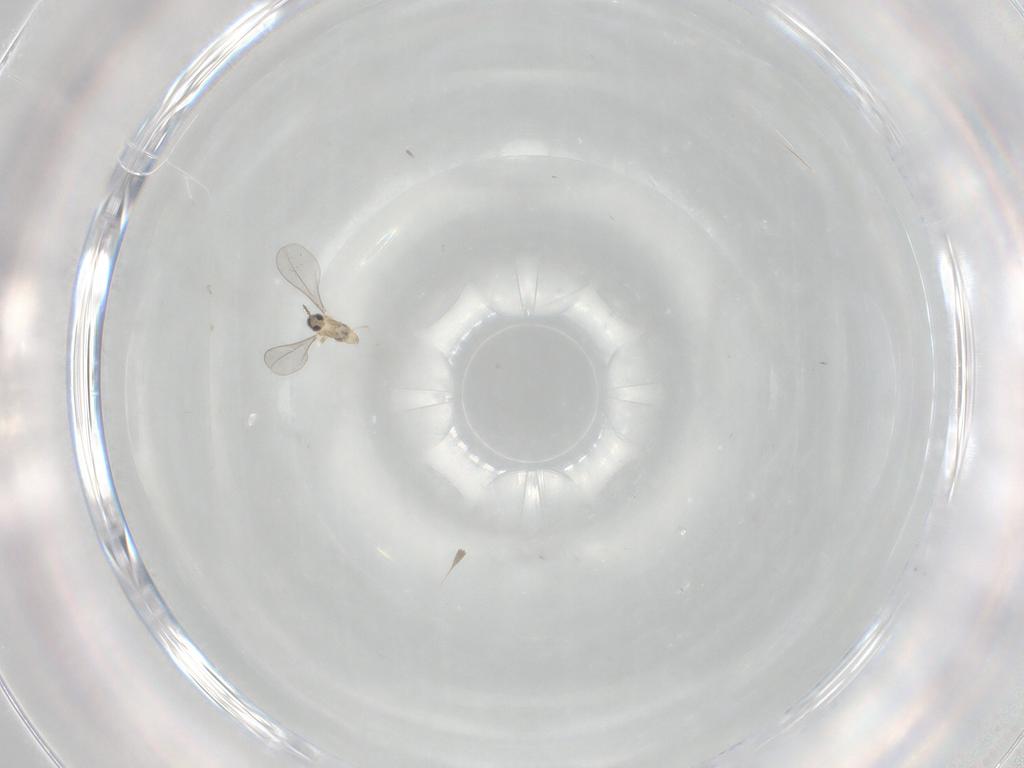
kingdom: Animalia
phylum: Arthropoda
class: Insecta
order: Diptera
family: Cecidomyiidae
